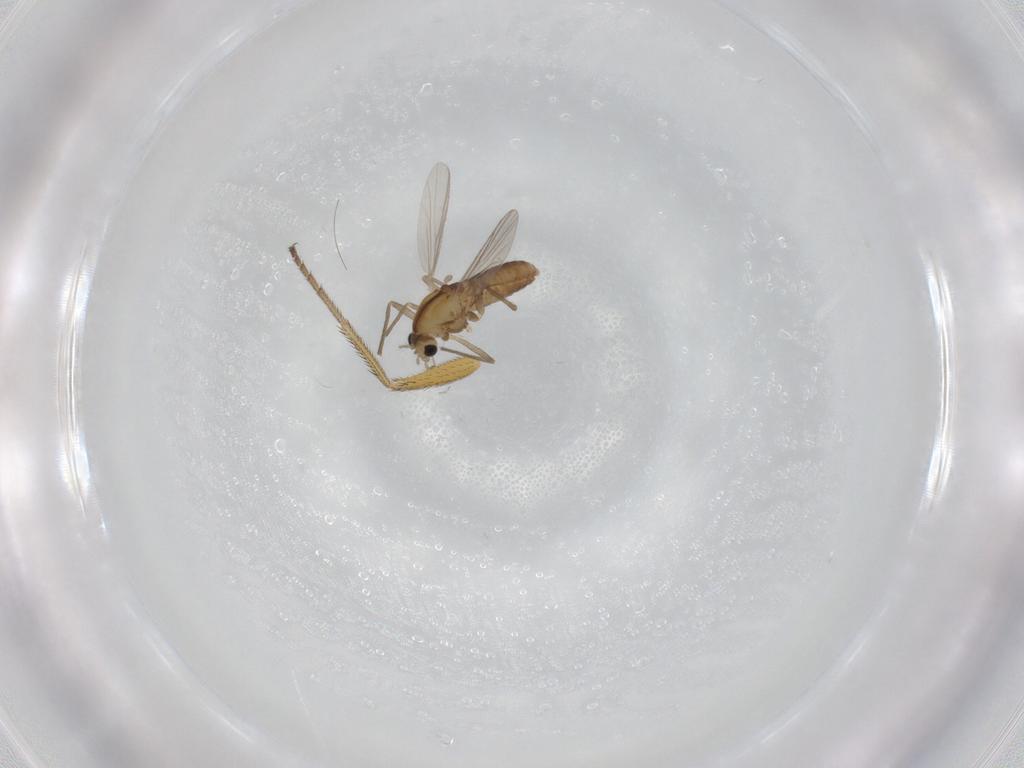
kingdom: Animalia
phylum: Arthropoda
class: Insecta
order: Diptera
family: Chironomidae
